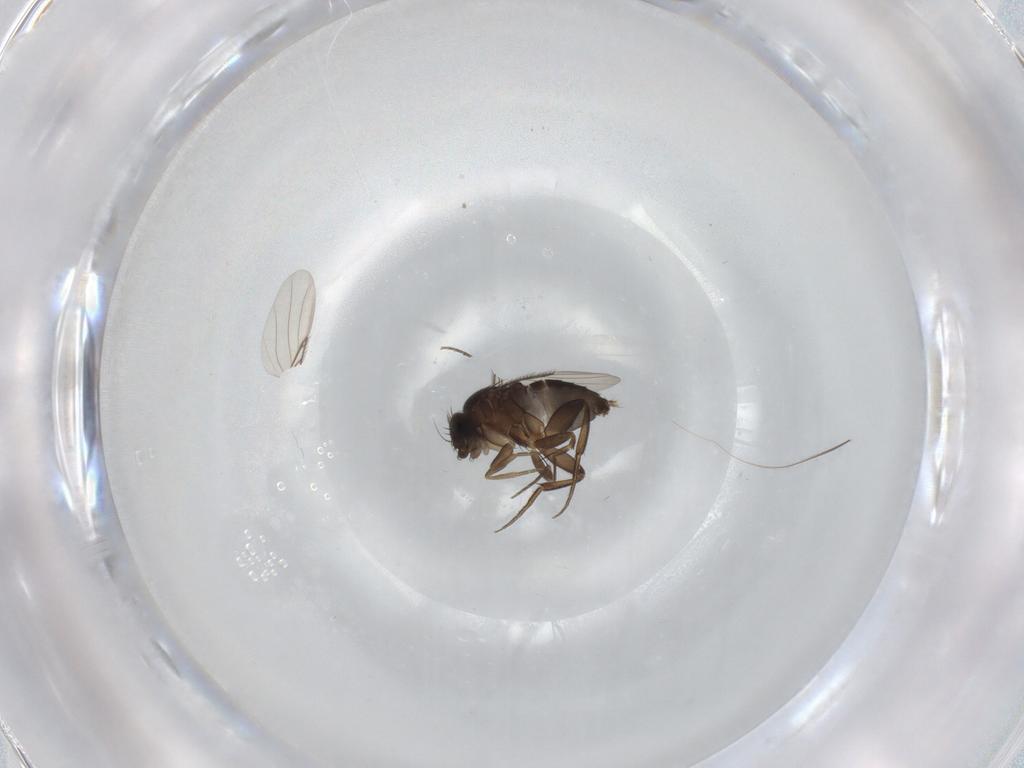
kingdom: Animalia
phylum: Arthropoda
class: Insecta
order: Diptera
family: Phoridae
